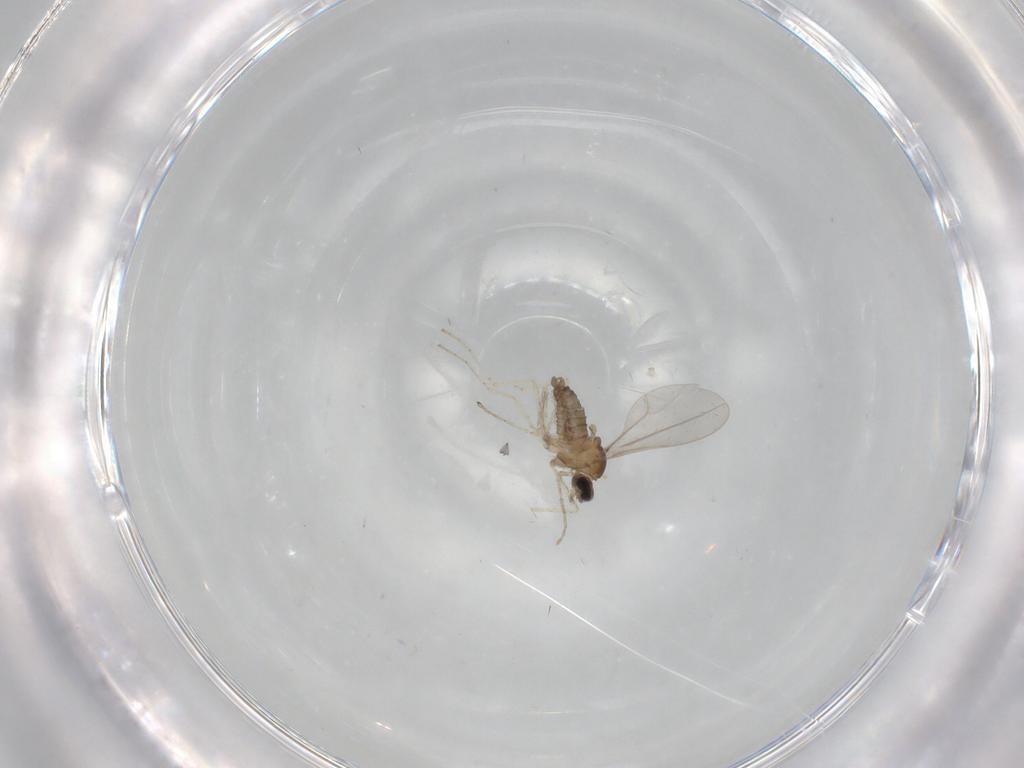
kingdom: Animalia
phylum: Arthropoda
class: Insecta
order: Diptera
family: Cecidomyiidae
